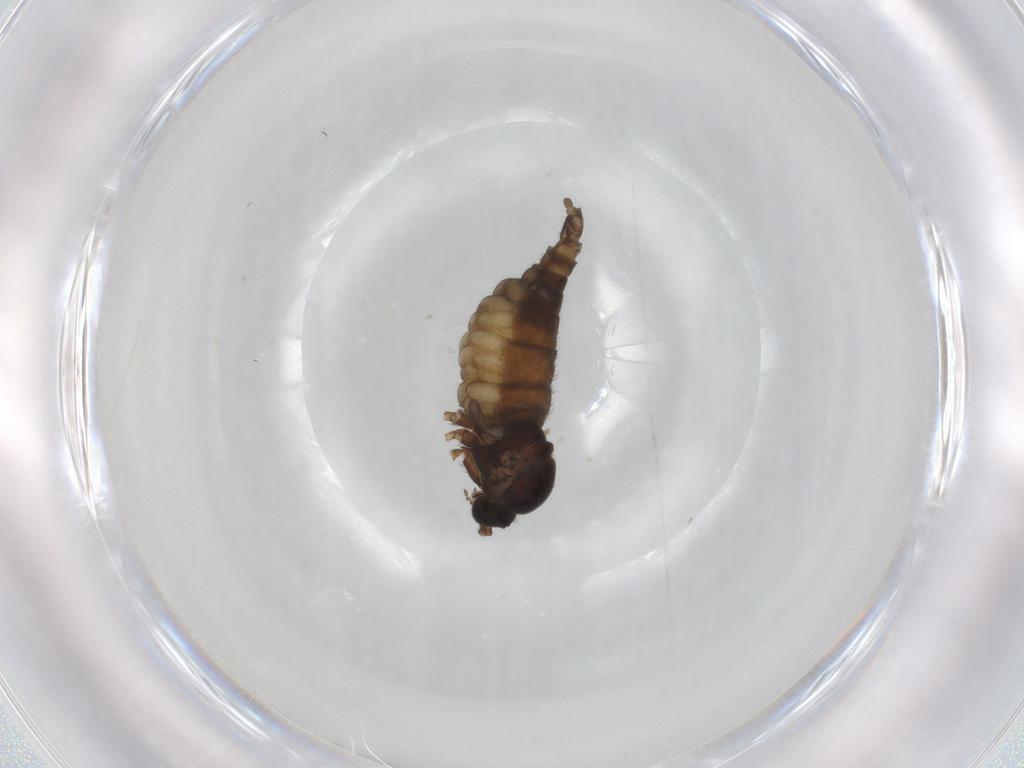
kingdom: Animalia
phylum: Arthropoda
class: Insecta
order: Diptera
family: Sciaridae
